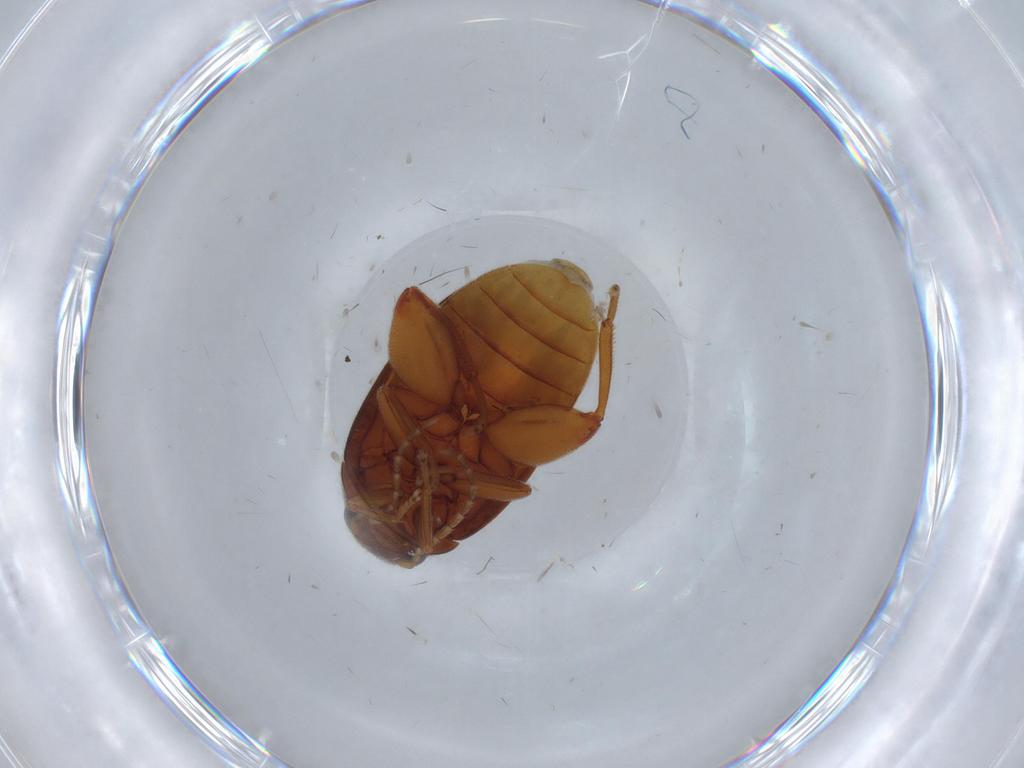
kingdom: Animalia
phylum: Arthropoda
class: Insecta
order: Coleoptera
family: Scirtidae
